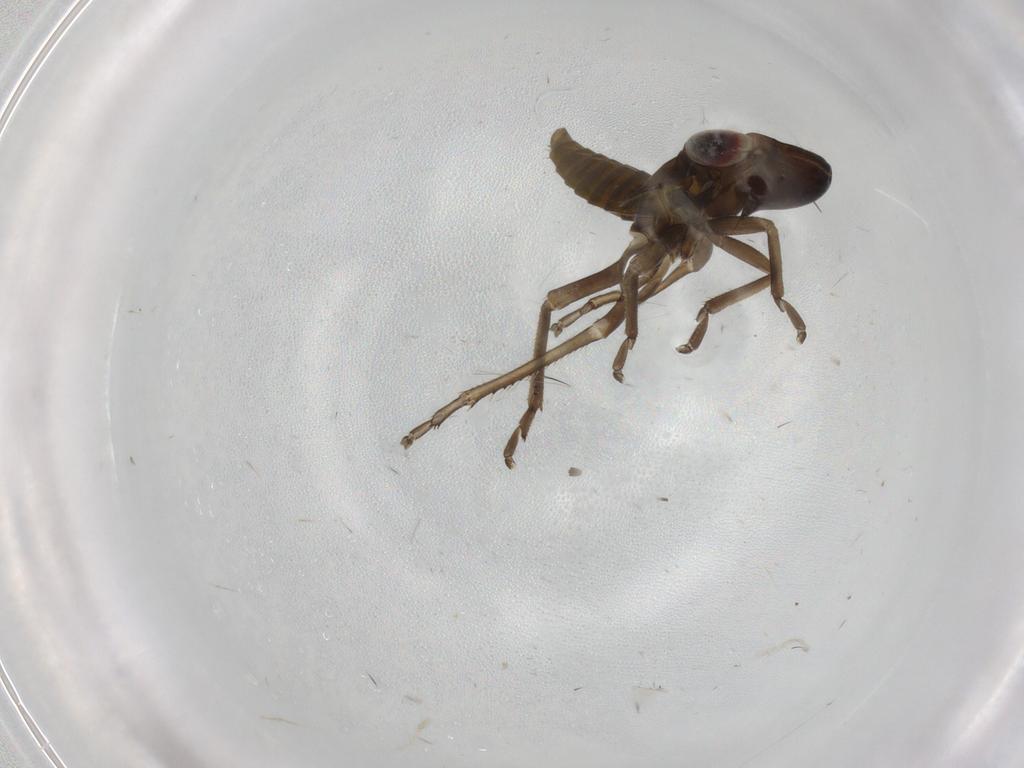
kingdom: Animalia
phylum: Arthropoda
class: Insecta
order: Hemiptera
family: Cicadellidae
